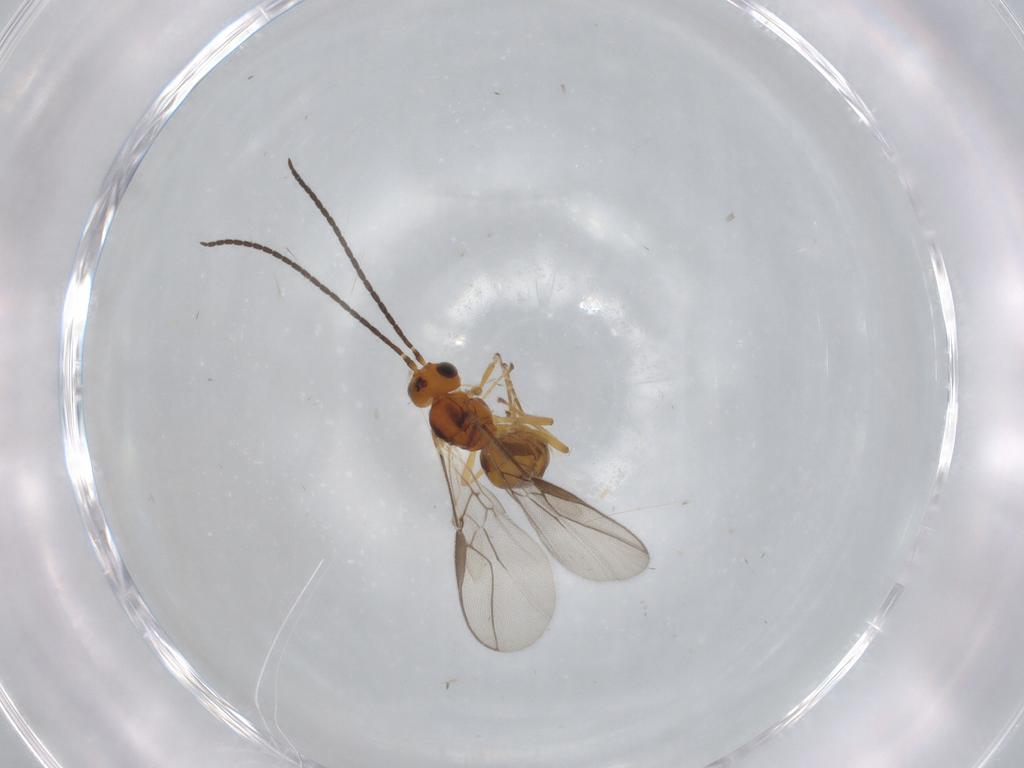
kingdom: Animalia
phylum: Arthropoda
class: Insecta
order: Hymenoptera
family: Braconidae
